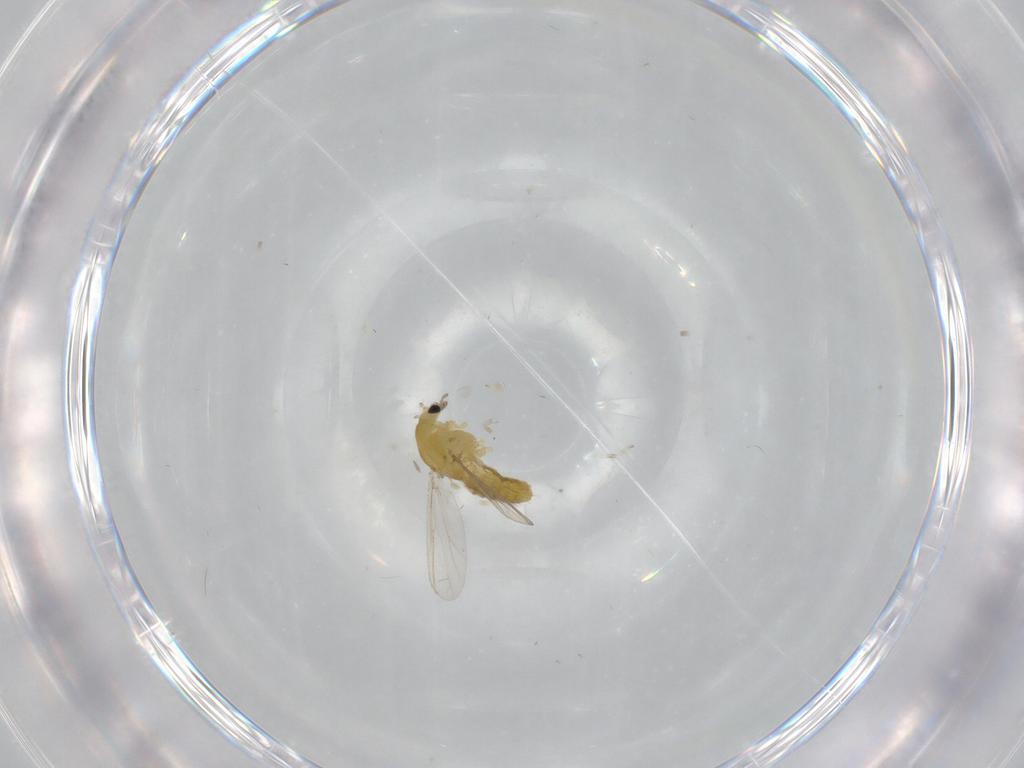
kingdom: Animalia
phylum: Arthropoda
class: Insecta
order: Diptera
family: Chironomidae
